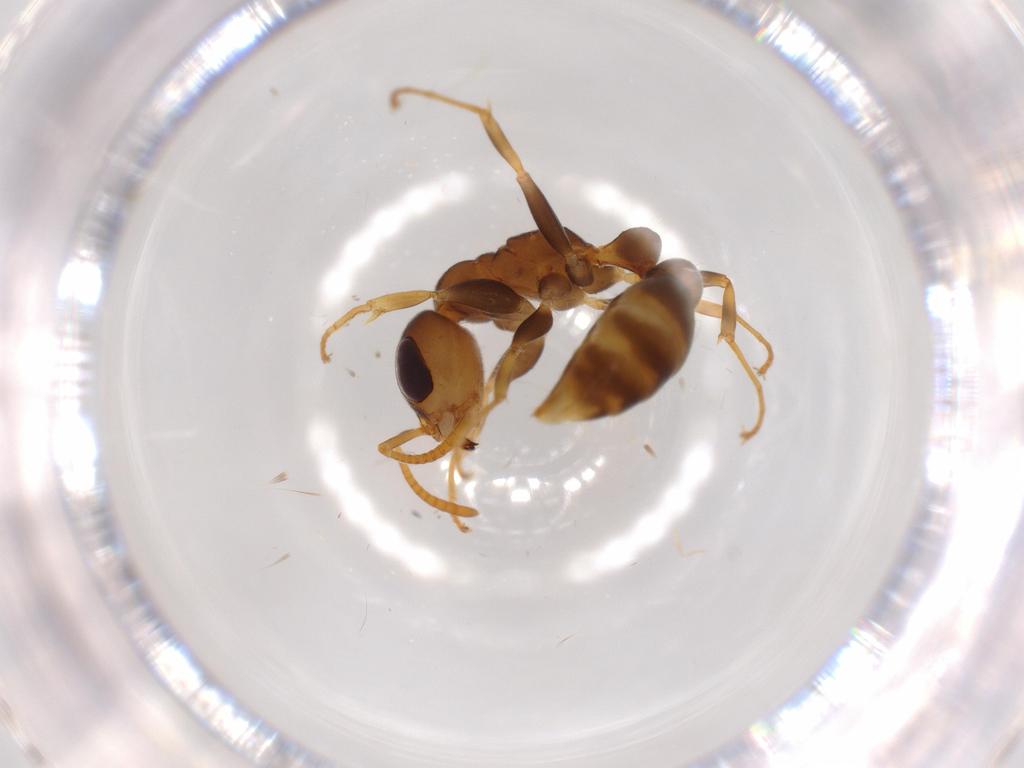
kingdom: Animalia
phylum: Arthropoda
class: Insecta
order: Hymenoptera
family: Formicidae
